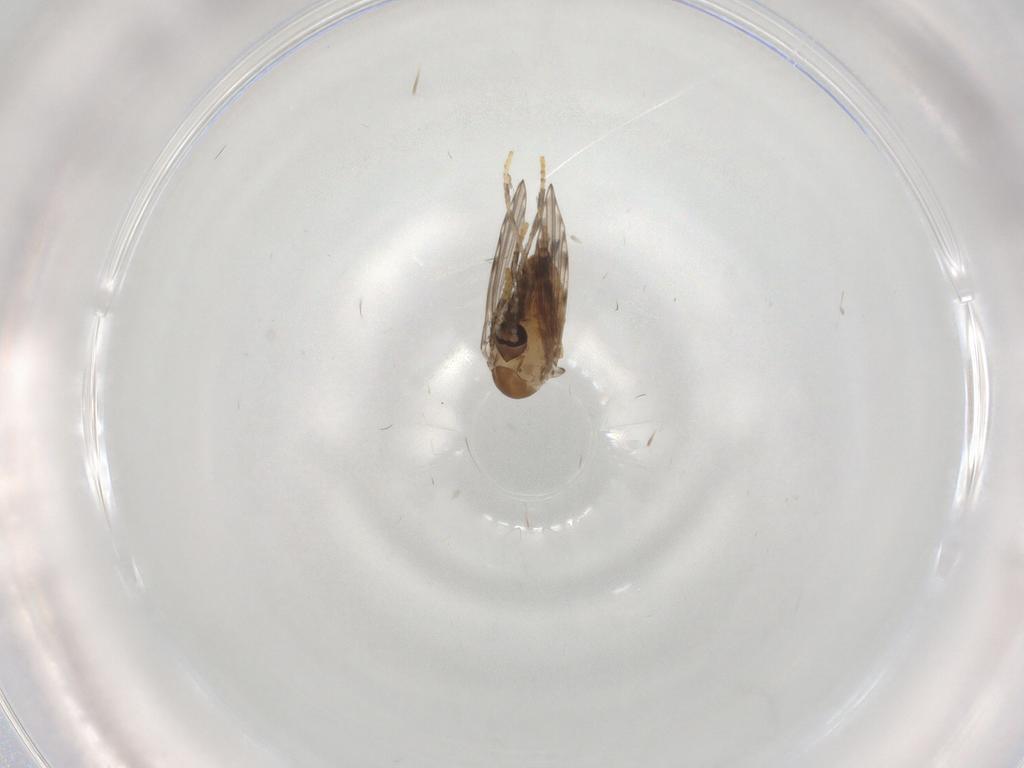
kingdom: Animalia
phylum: Arthropoda
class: Insecta
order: Diptera
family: Psychodidae
